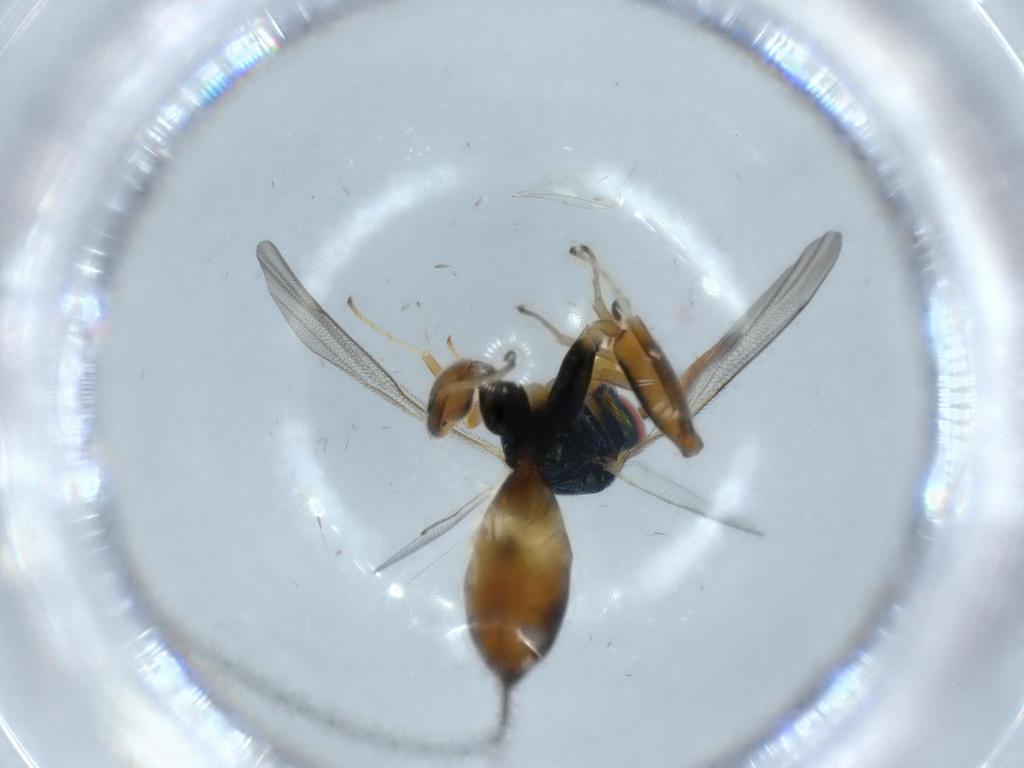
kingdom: Animalia
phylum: Arthropoda
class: Insecta
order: Hymenoptera
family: Torymidae
